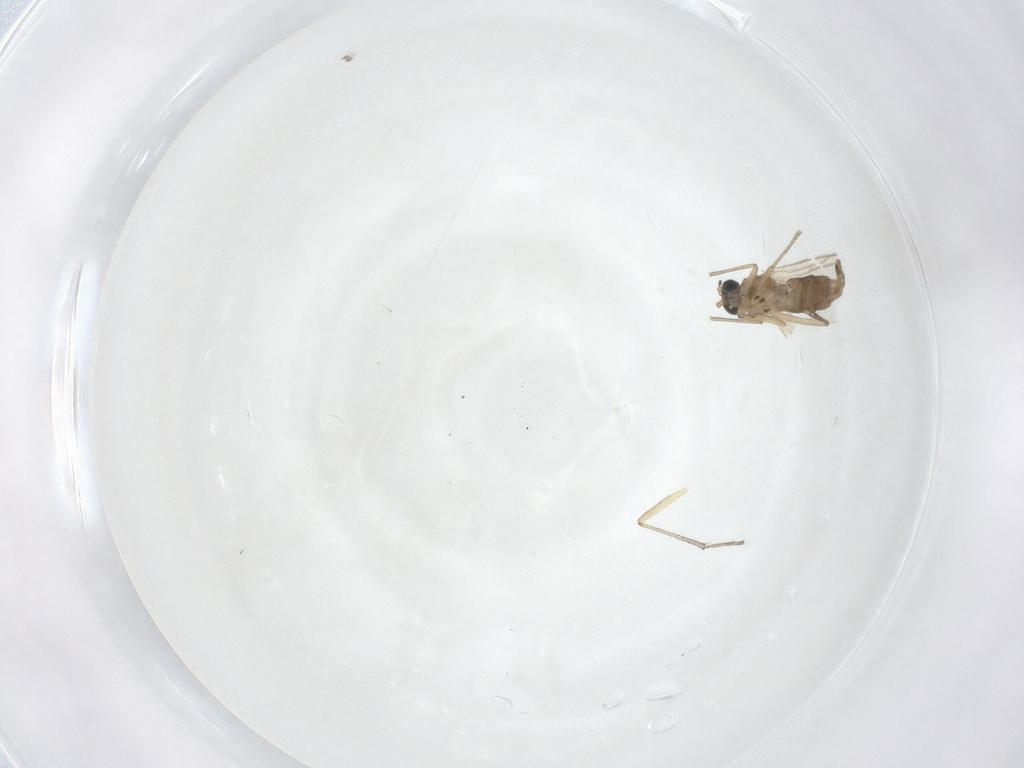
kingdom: Animalia
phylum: Arthropoda
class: Insecta
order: Diptera
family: Sciaridae
